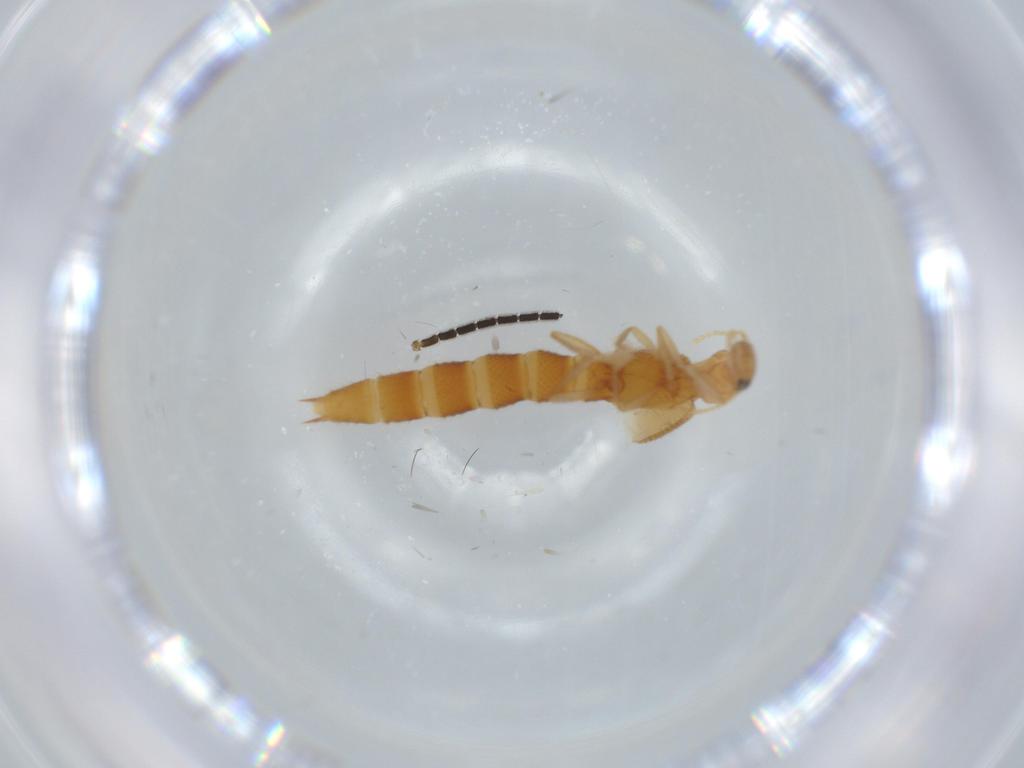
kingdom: Animalia
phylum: Arthropoda
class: Insecta
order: Coleoptera
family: Staphylinidae
